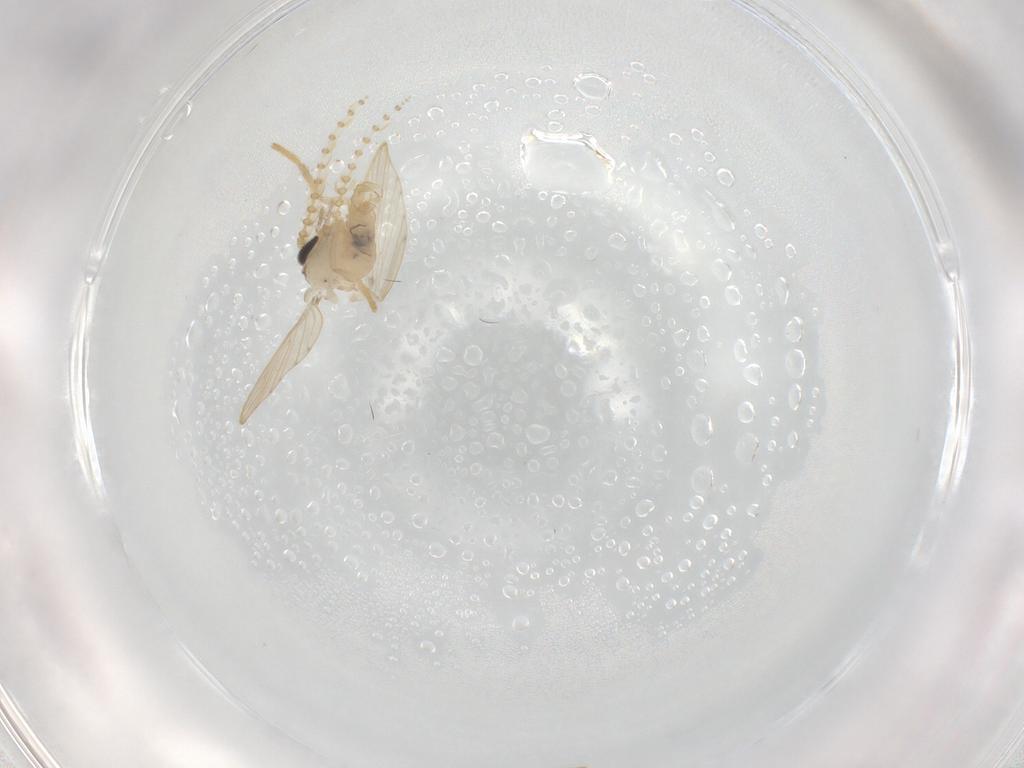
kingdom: Animalia
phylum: Arthropoda
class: Insecta
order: Diptera
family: Psychodidae
